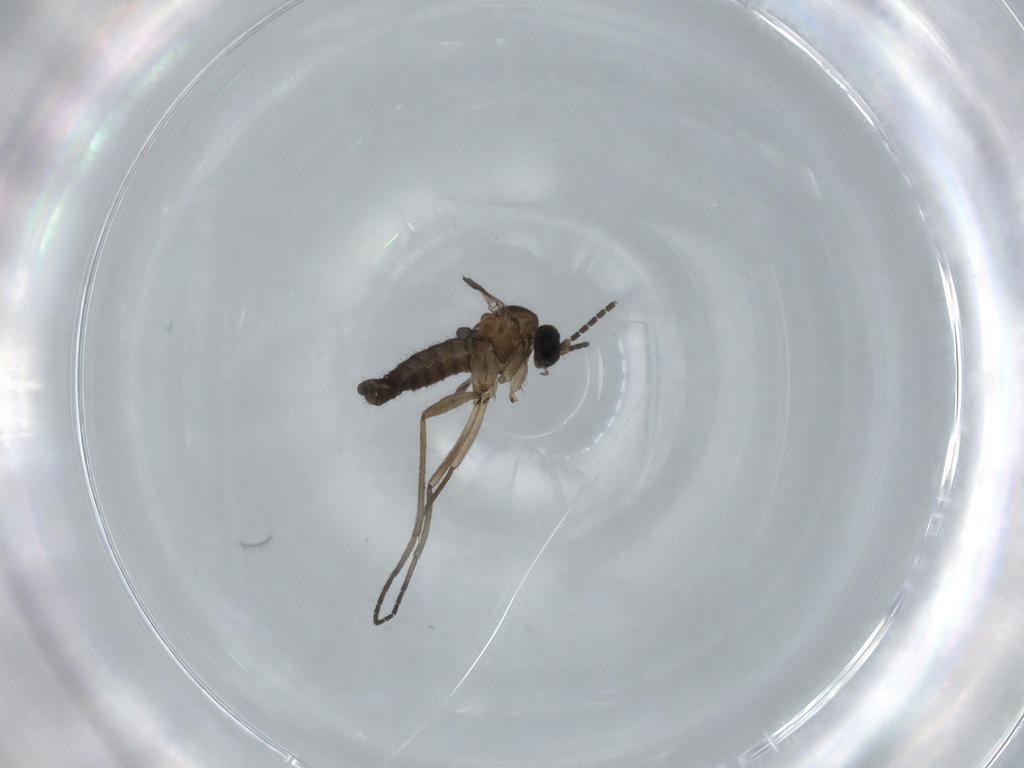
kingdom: Animalia
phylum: Arthropoda
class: Insecta
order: Diptera
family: Sciaridae
